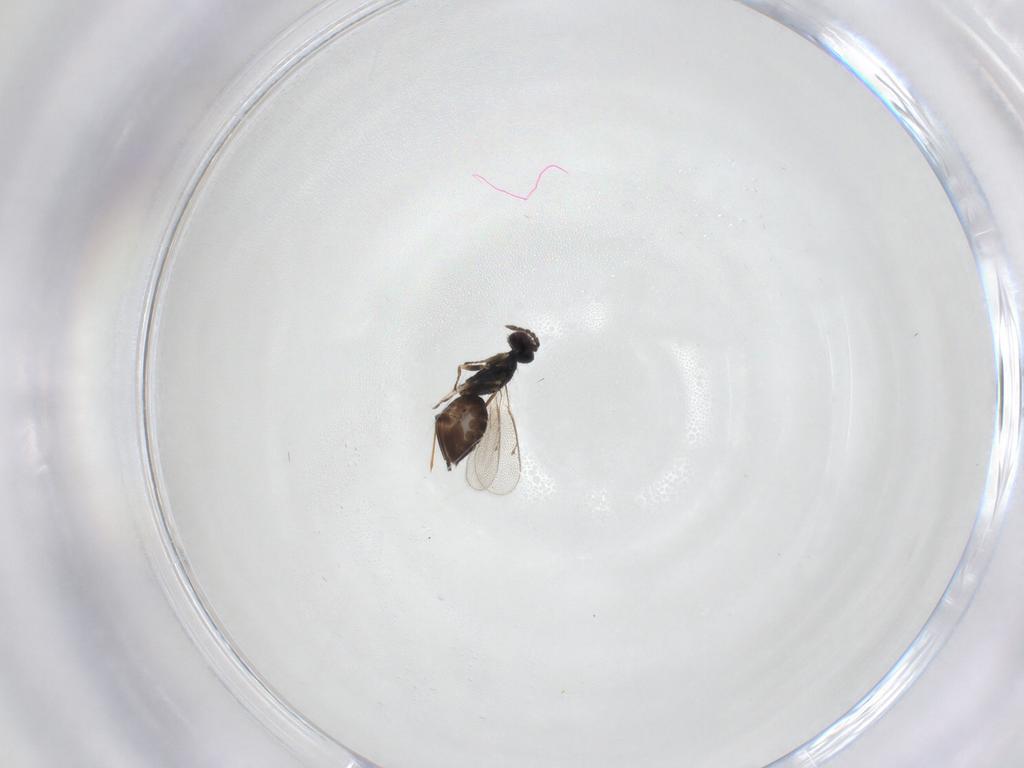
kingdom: Animalia
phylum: Arthropoda
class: Insecta
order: Hymenoptera
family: Eulophidae
